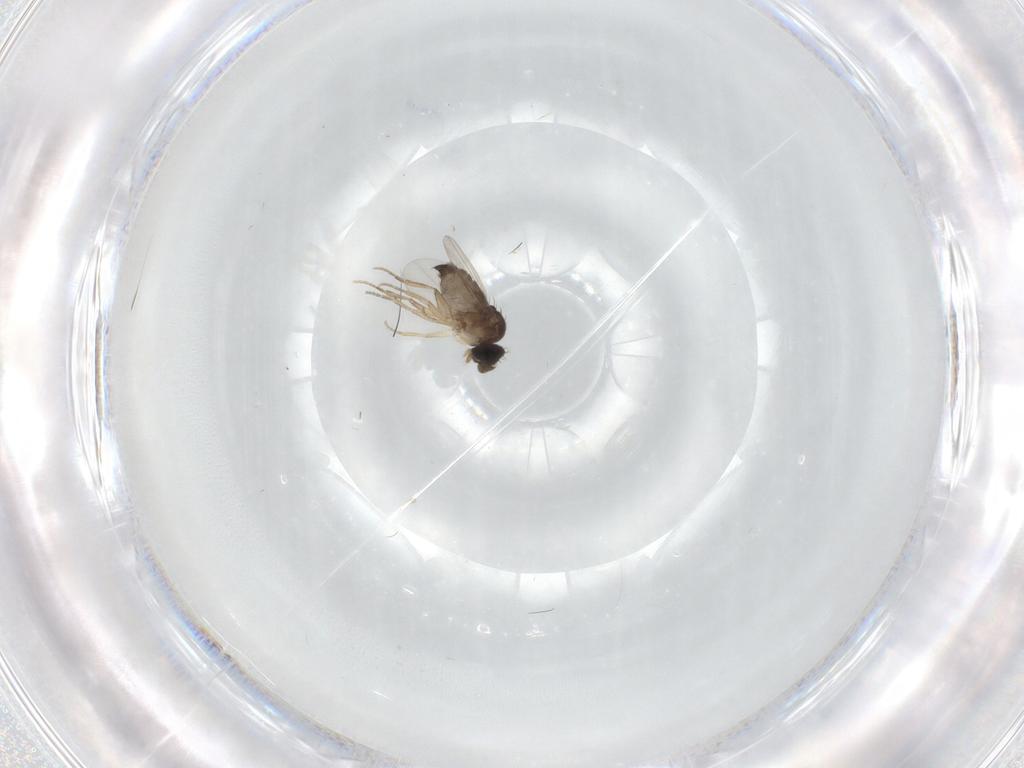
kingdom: Animalia
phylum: Arthropoda
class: Insecta
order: Diptera
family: Phoridae
